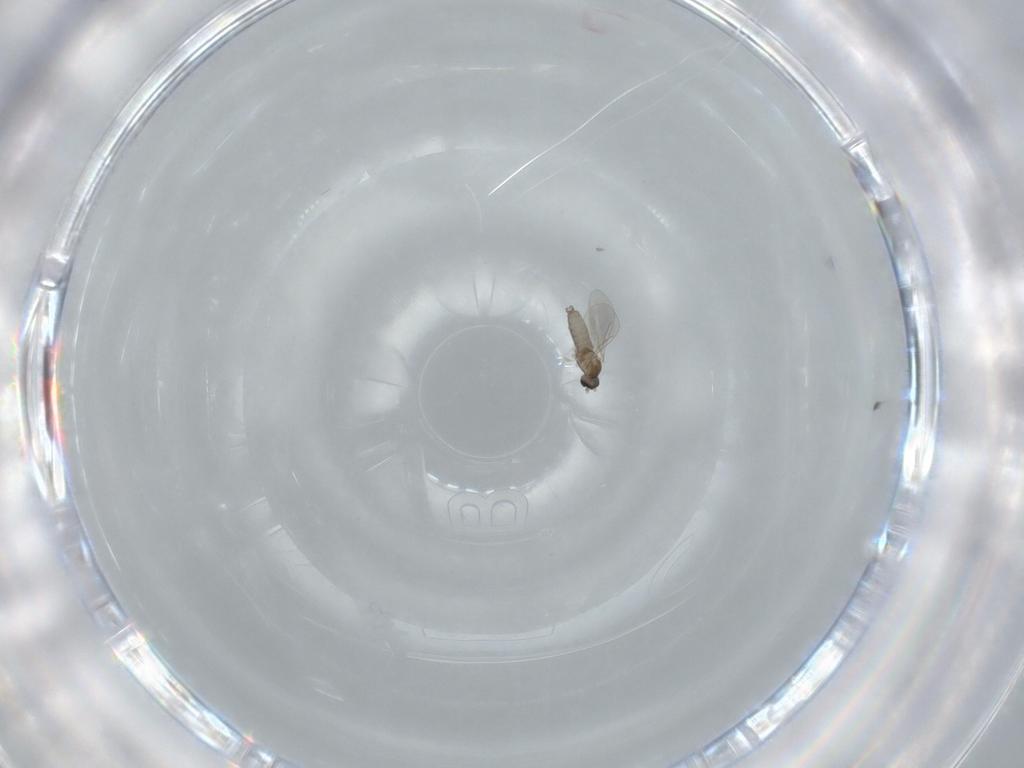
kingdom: Animalia
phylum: Arthropoda
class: Insecta
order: Diptera
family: Cecidomyiidae
